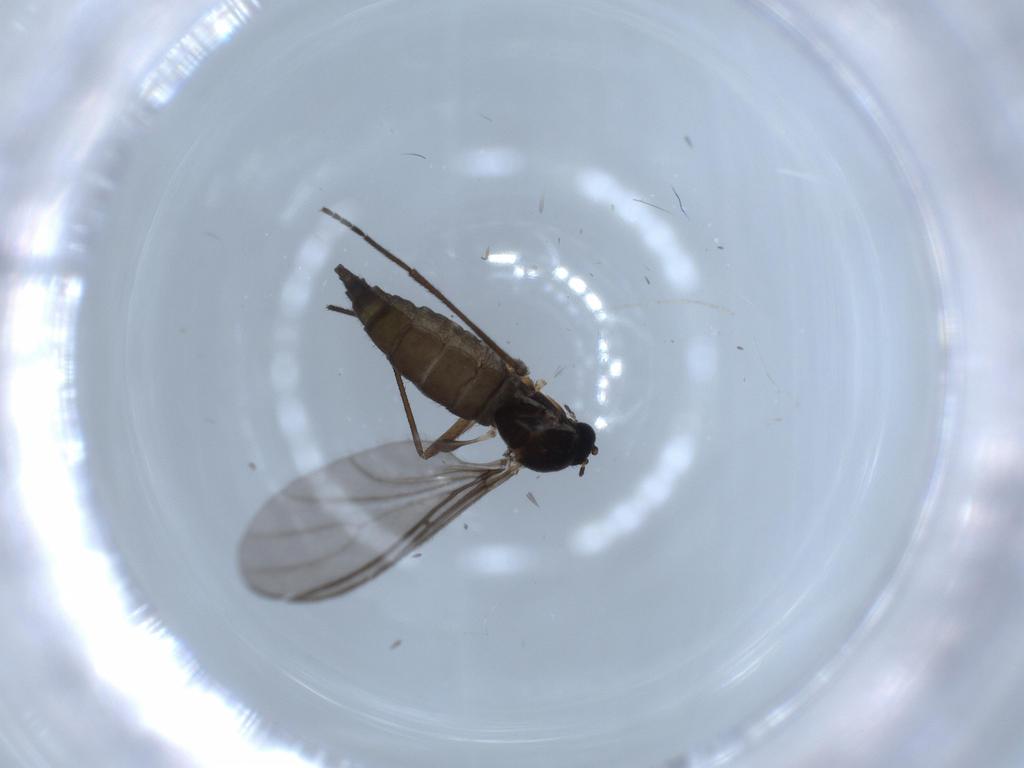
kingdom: Animalia
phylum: Arthropoda
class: Insecta
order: Diptera
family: Sciaridae
